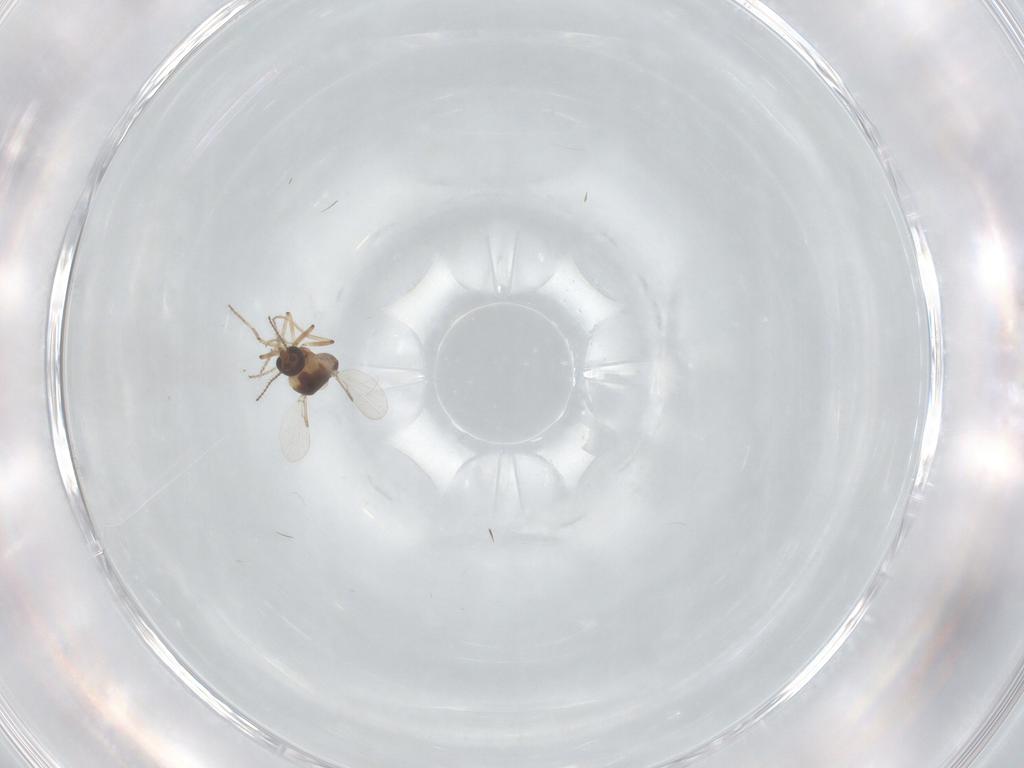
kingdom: Animalia
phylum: Arthropoda
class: Insecta
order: Diptera
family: Ceratopogonidae
